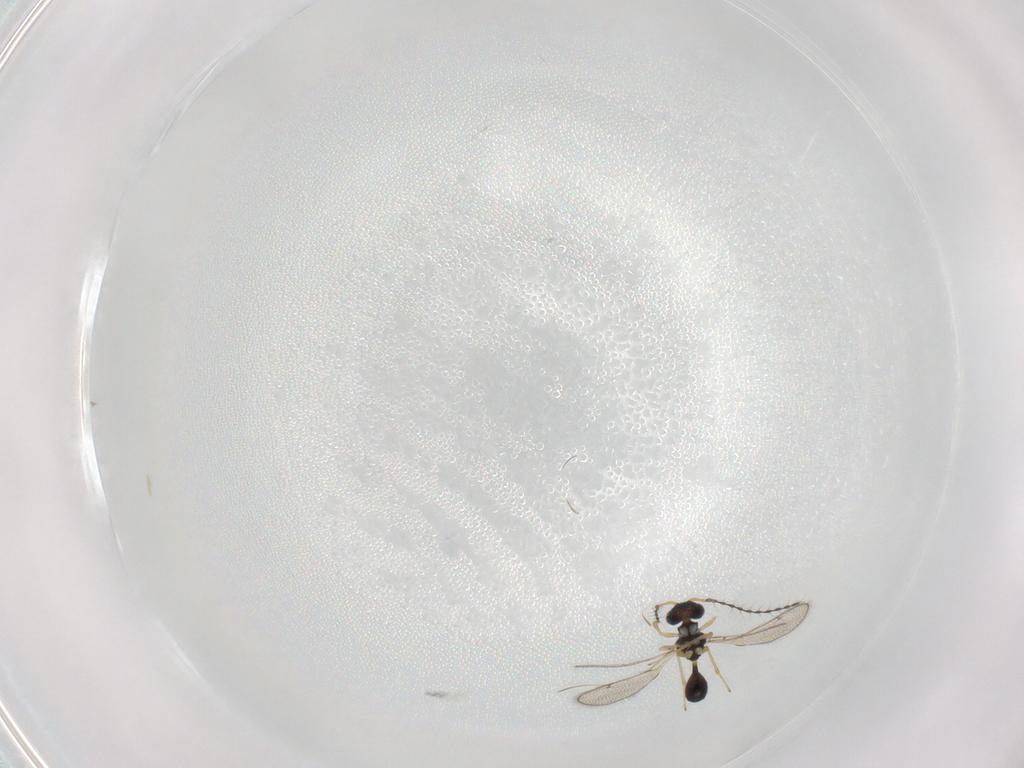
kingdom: Animalia
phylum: Arthropoda
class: Insecta
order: Hymenoptera
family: Diparidae
